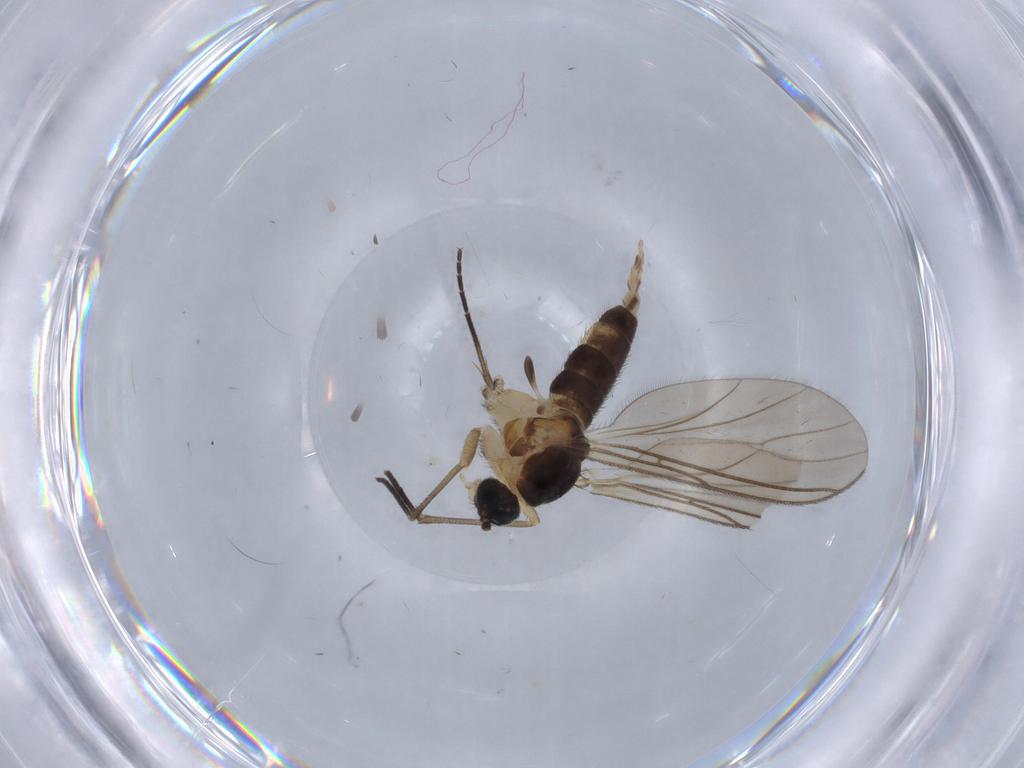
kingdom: Animalia
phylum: Arthropoda
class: Insecta
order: Diptera
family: Sciaridae
